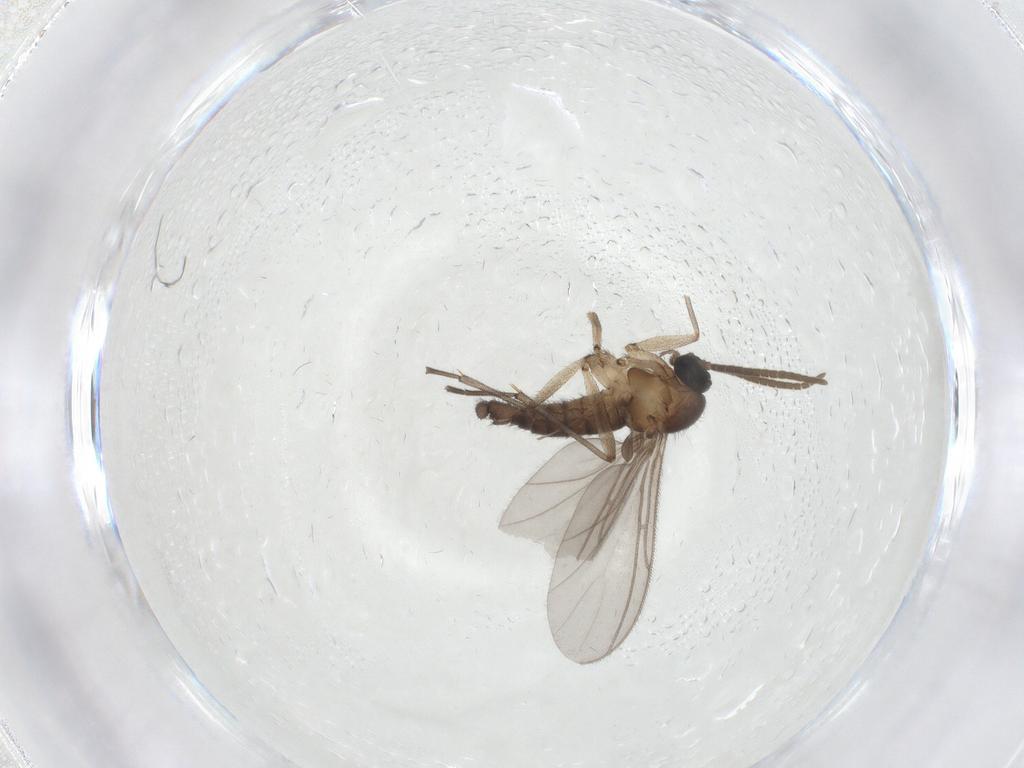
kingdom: Animalia
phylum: Arthropoda
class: Insecta
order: Diptera
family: Cecidomyiidae
